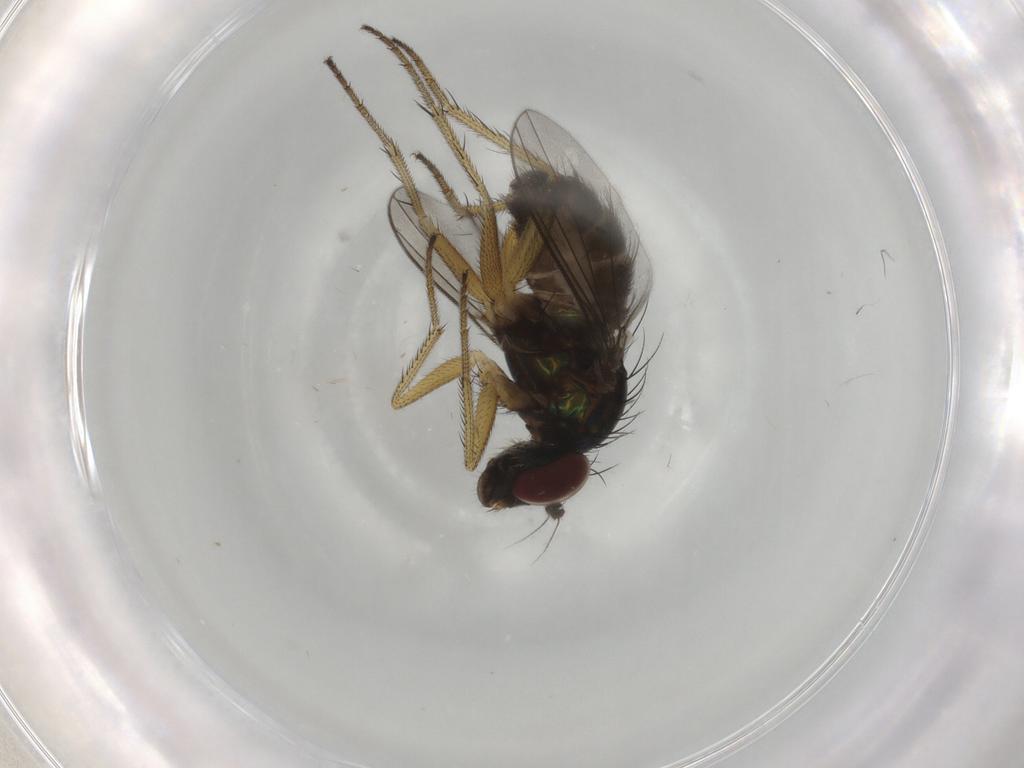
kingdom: Animalia
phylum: Arthropoda
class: Insecta
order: Diptera
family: Dolichopodidae
